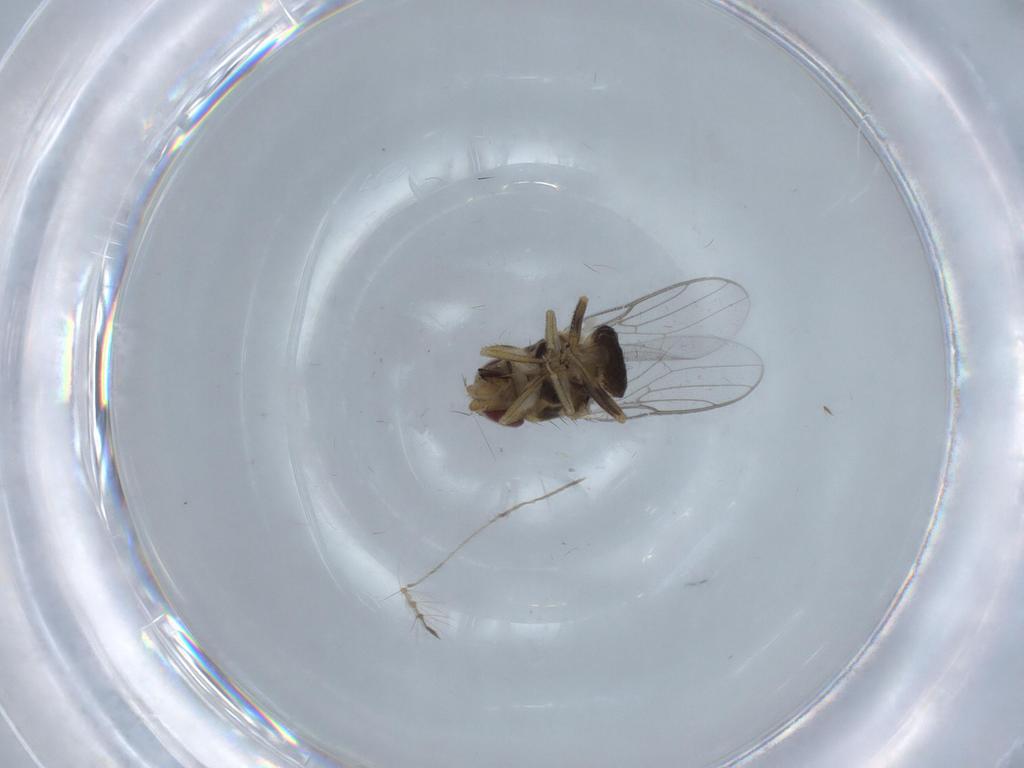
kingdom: Animalia
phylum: Arthropoda
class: Insecta
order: Diptera
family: Chloropidae
